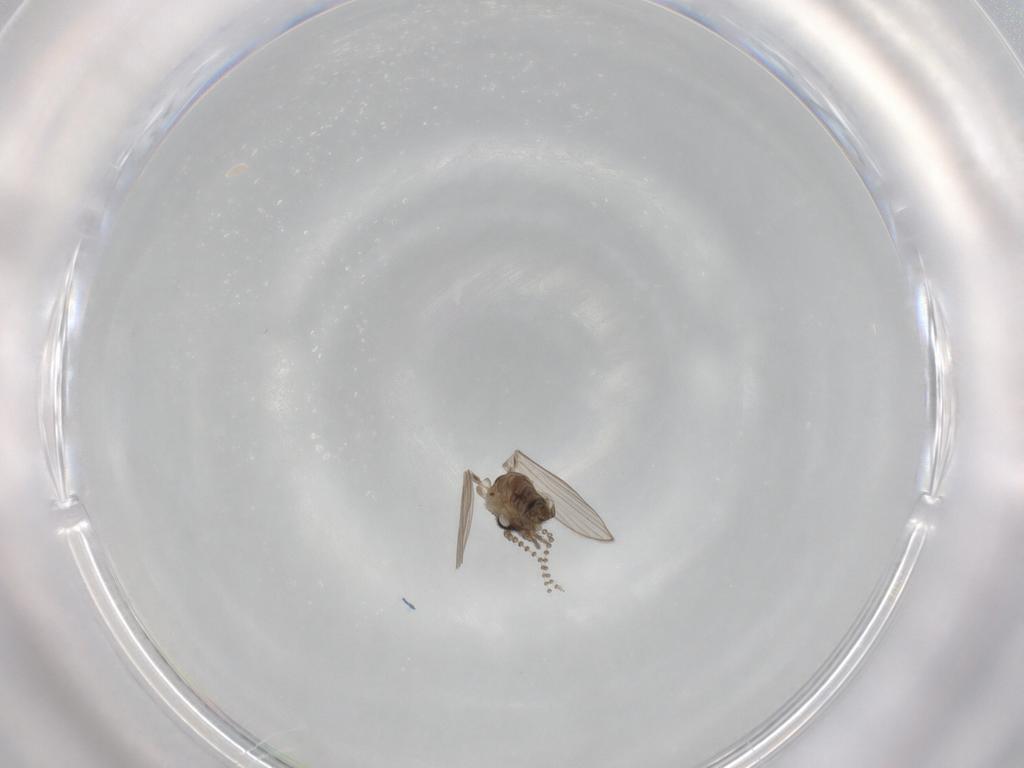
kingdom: Animalia
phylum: Arthropoda
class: Insecta
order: Diptera
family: Psychodidae
